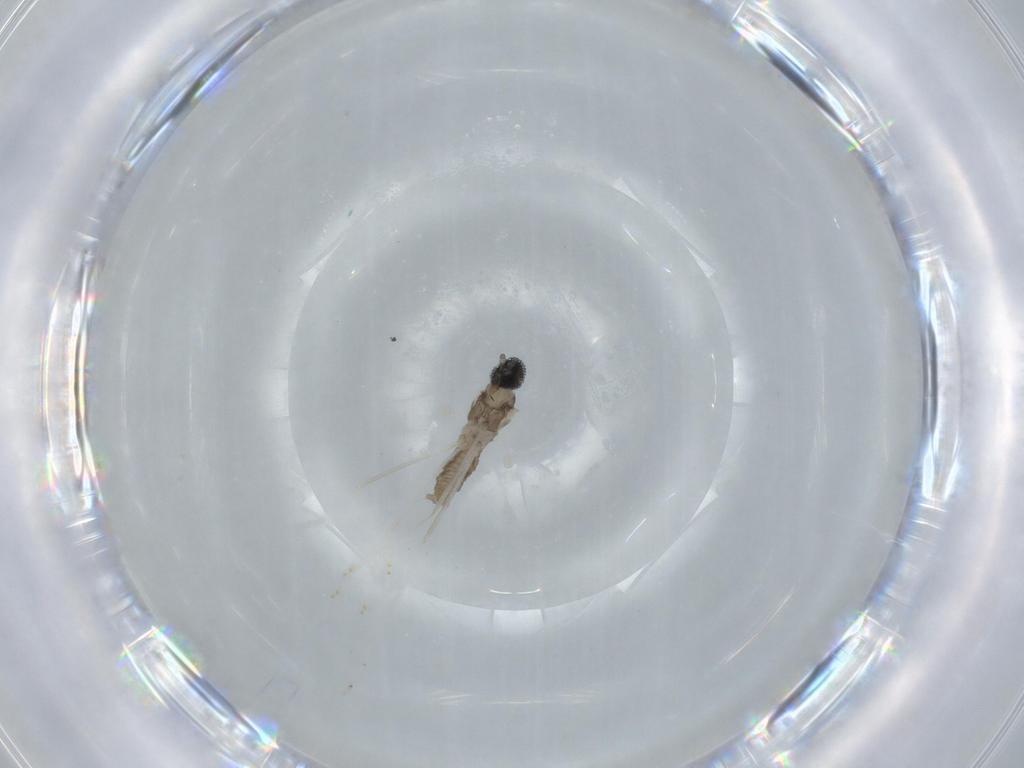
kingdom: Animalia
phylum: Arthropoda
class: Insecta
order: Diptera
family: Cecidomyiidae
